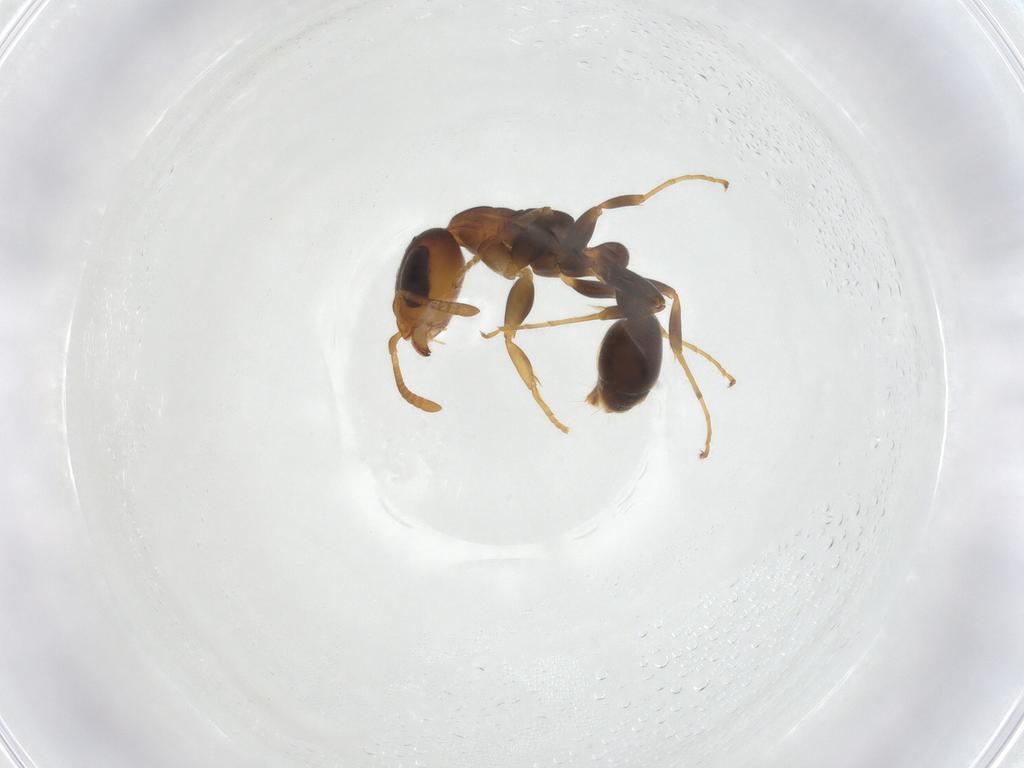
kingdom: Animalia
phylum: Arthropoda
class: Insecta
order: Hymenoptera
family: Formicidae
